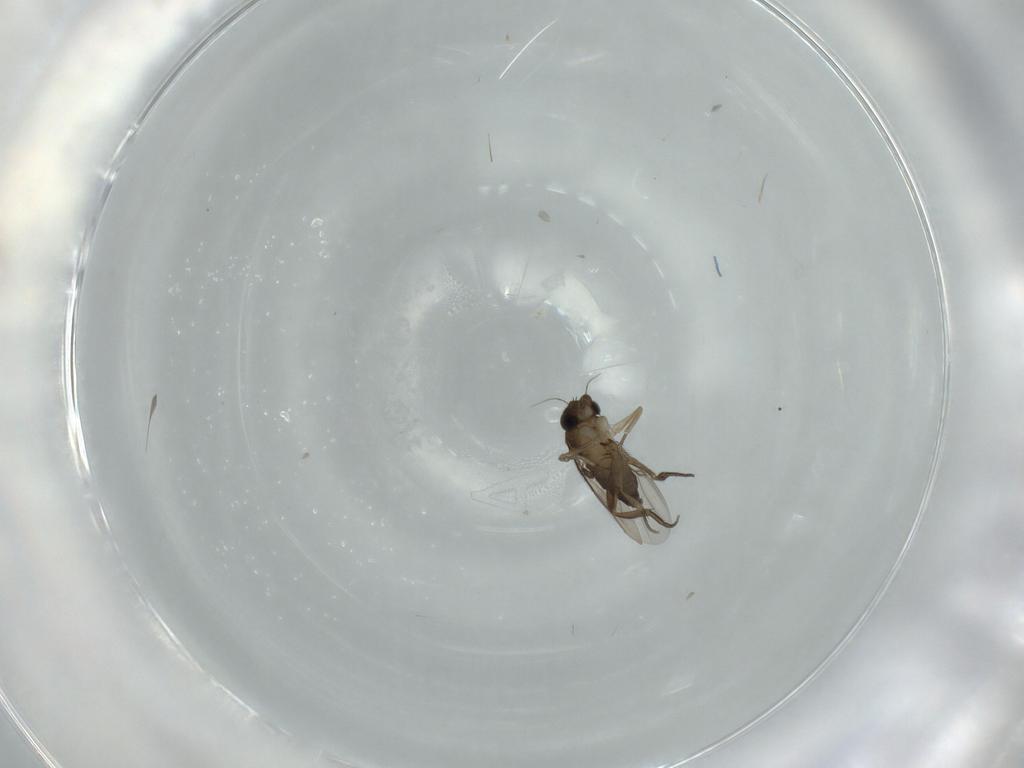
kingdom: Animalia
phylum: Arthropoda
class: Insecta
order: Diptera
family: Phoridae
